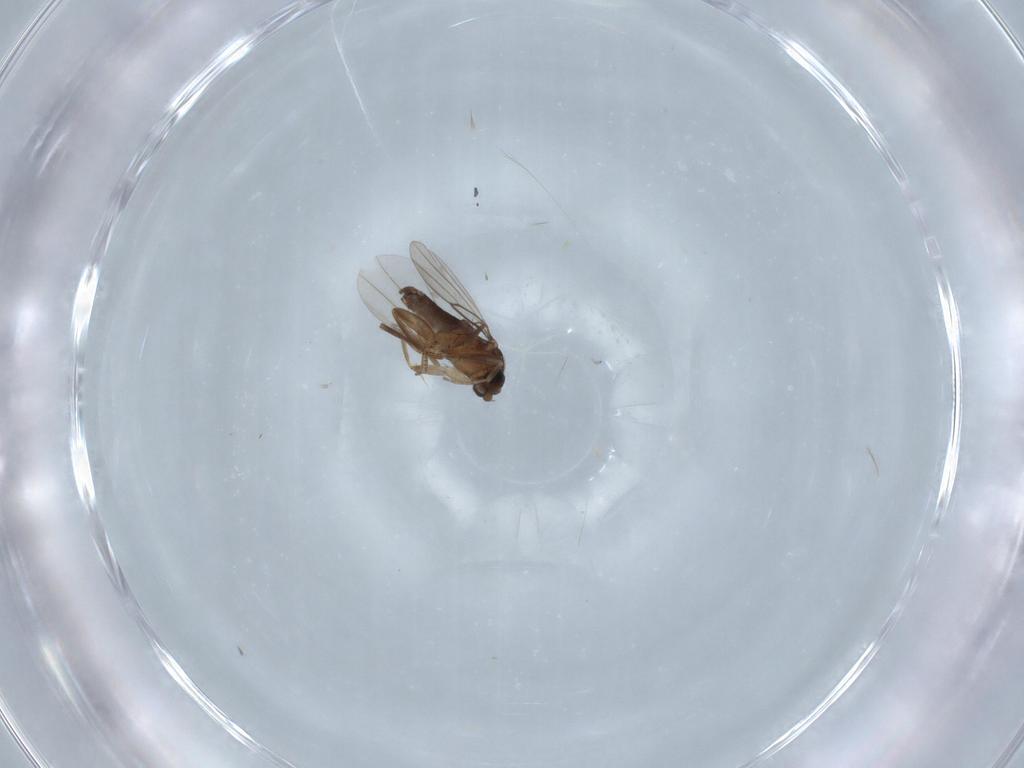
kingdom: Animalia
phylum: Arthropoda
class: Insecta
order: Diptera
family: Phoridae
